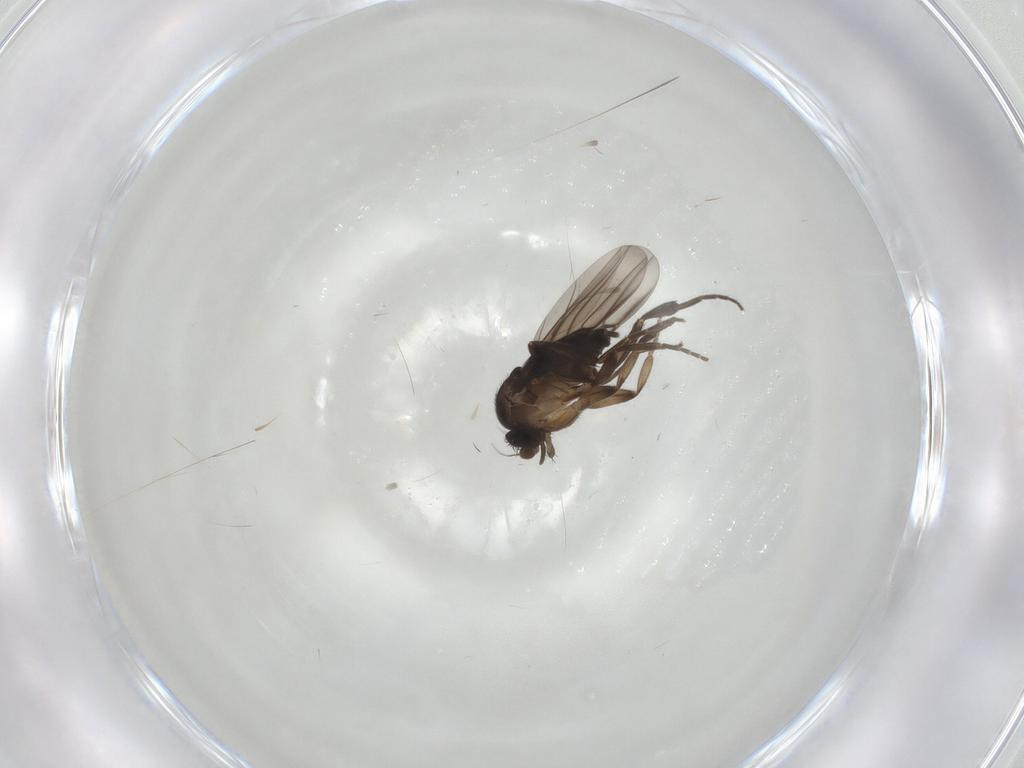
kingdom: Animalia
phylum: Arthropoda
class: Insecta
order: Diptera
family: Phoridae
